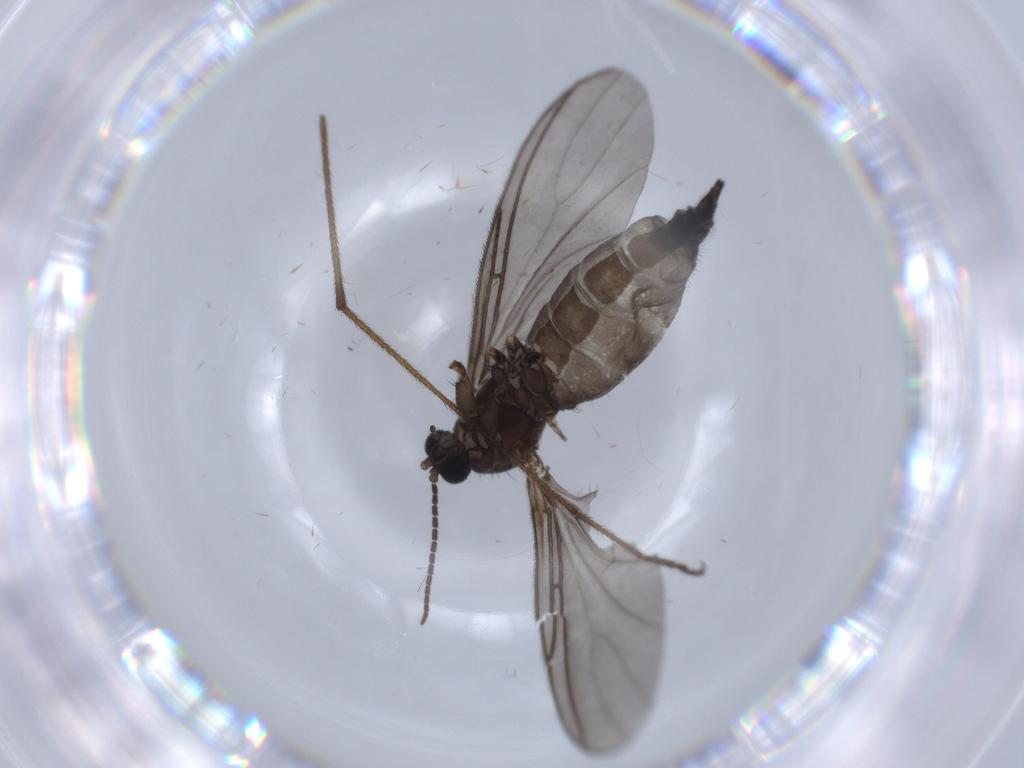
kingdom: Animalia
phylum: Arthropoda
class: Insecta
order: Diptera
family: Sciaridae
